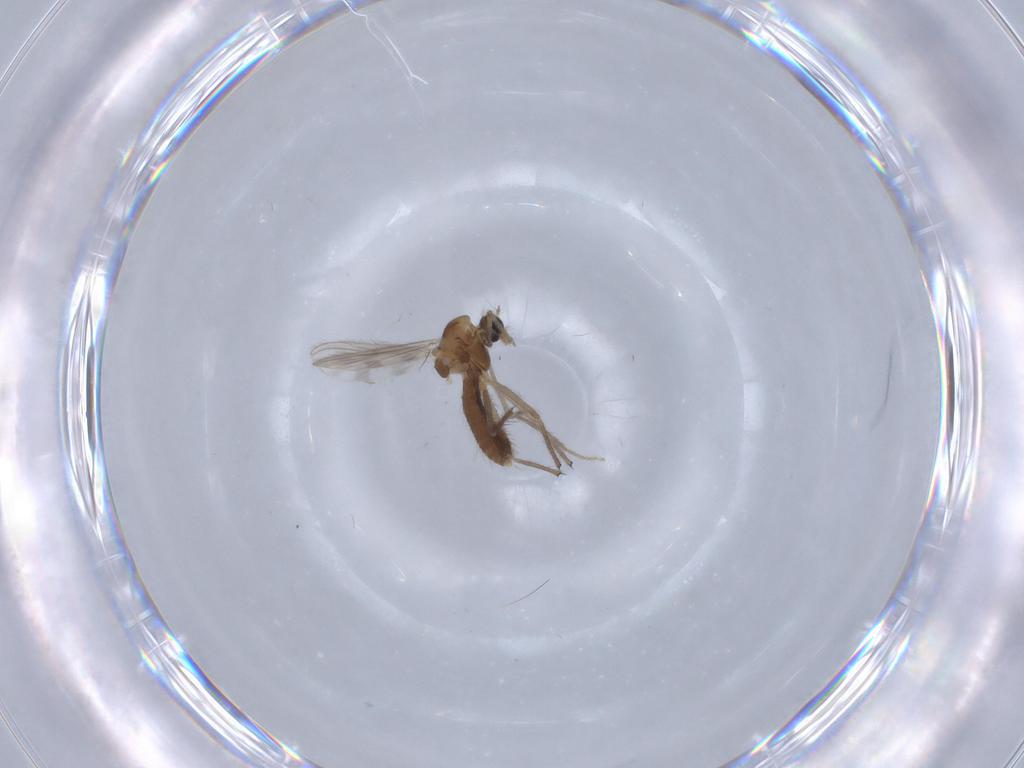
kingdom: Animalia
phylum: Arthropoda
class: Insecta
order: Diptera
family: Chironomidae
